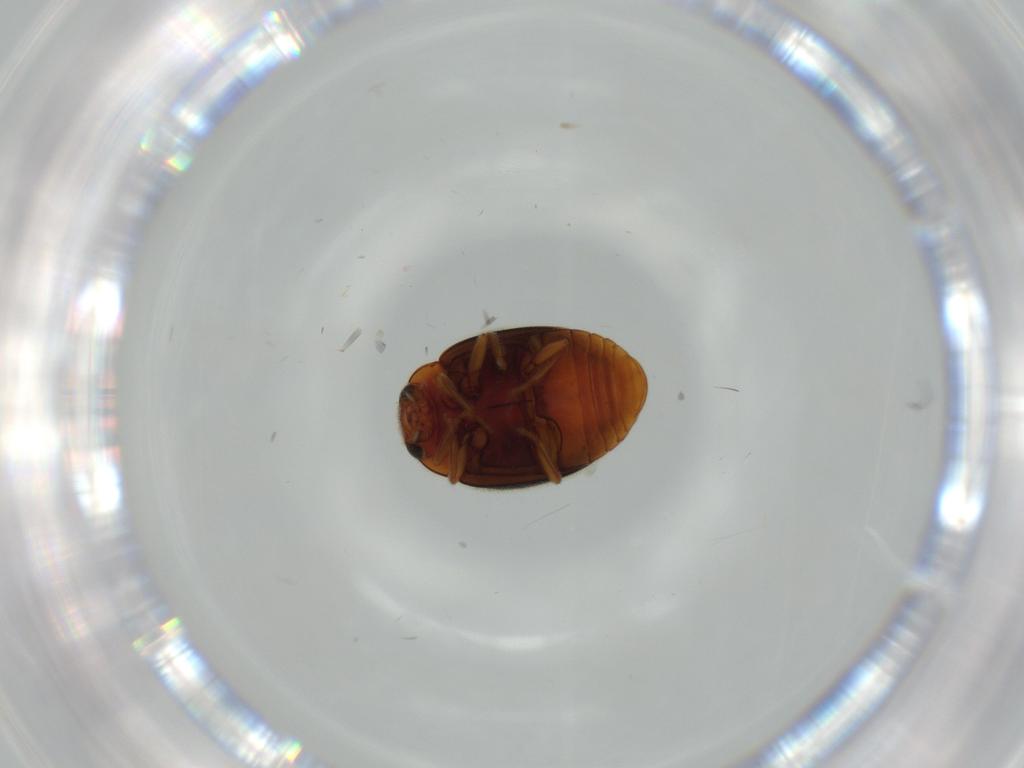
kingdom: Animalia
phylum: Arthropoda
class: Insecta
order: Coleoptera
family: Coccinellidae
